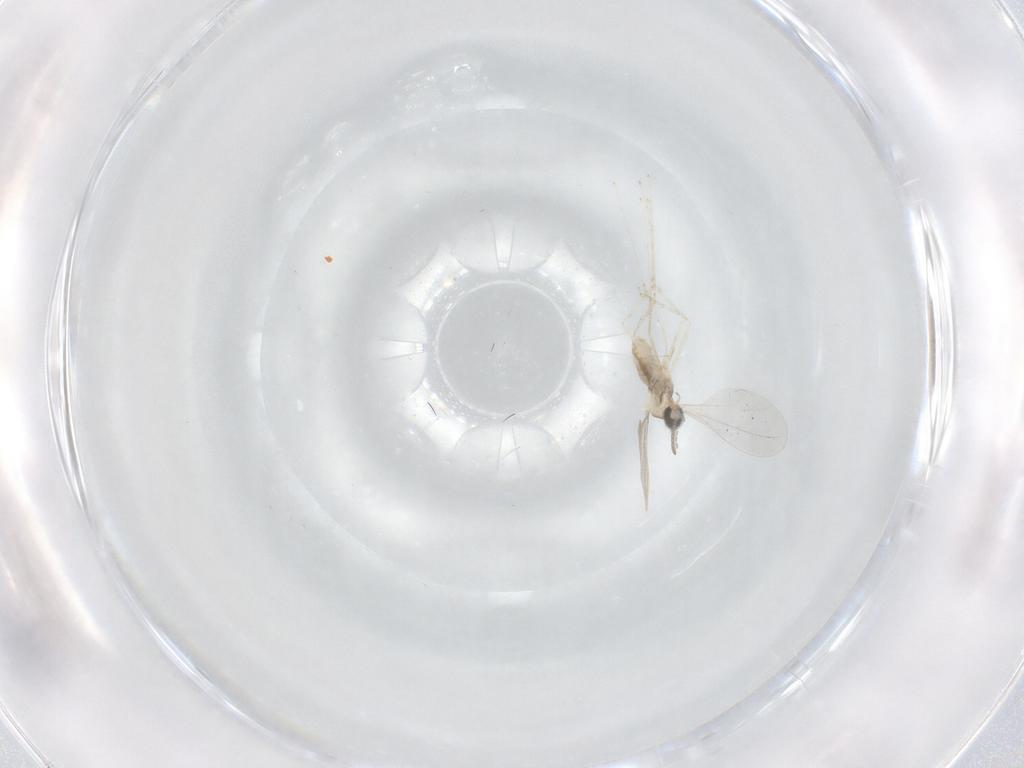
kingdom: Animalia
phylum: Arthropoda
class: Insecta
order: Diptera
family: Cecidomyiidae
